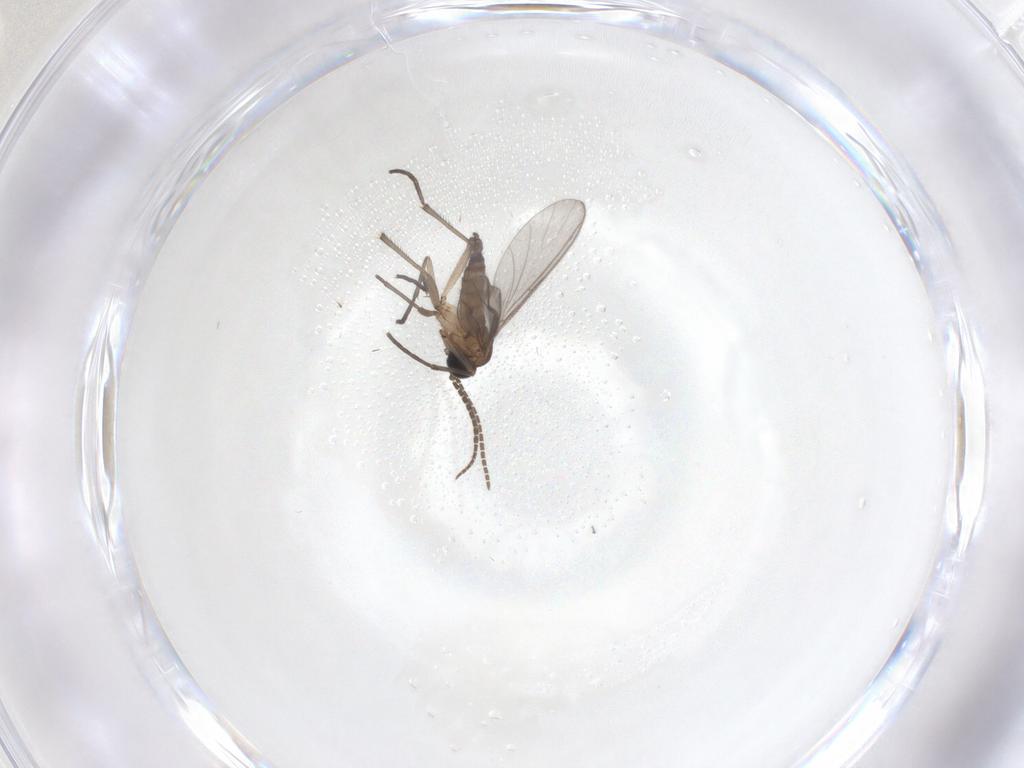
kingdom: Animalia
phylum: Arthropoda
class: Insecta
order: Diptera
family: Sciaridae
